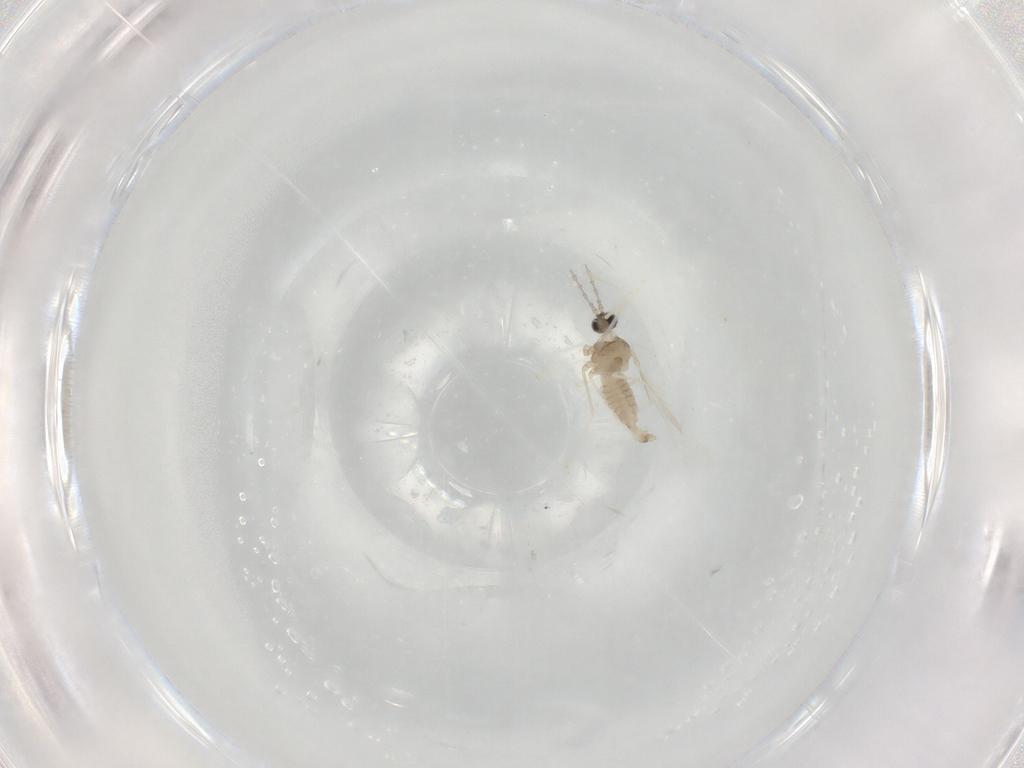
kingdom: Animalia
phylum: Arthropoda
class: Insecta
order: Diptera
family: Cecidomyiidae
